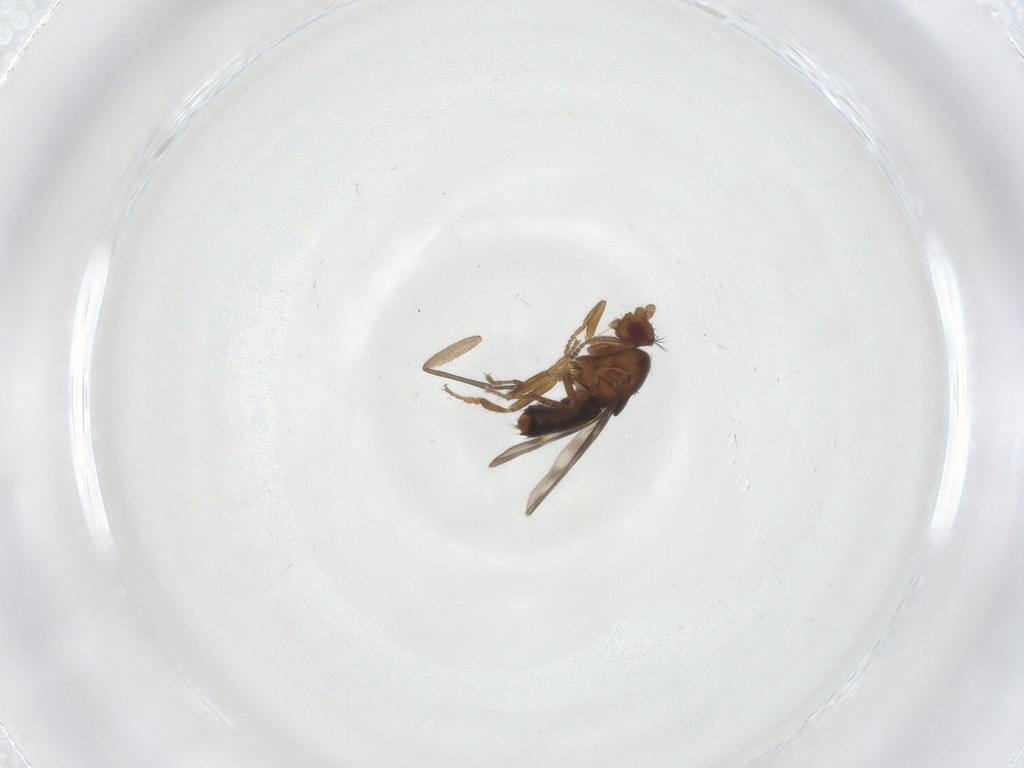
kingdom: Animalia
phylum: Arthropoda
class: Insecta
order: Diptera
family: Sphaeroceridae
